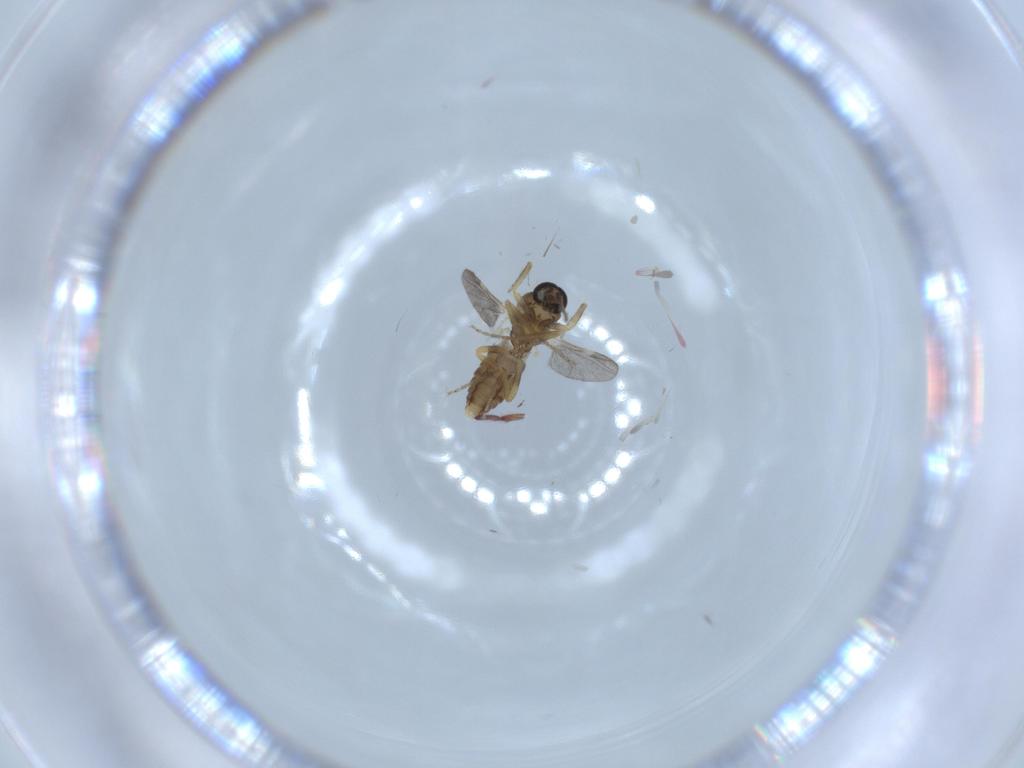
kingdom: Animalia
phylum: Arthropoda
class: Insecta
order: Diptera
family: Ceratopogonidae
